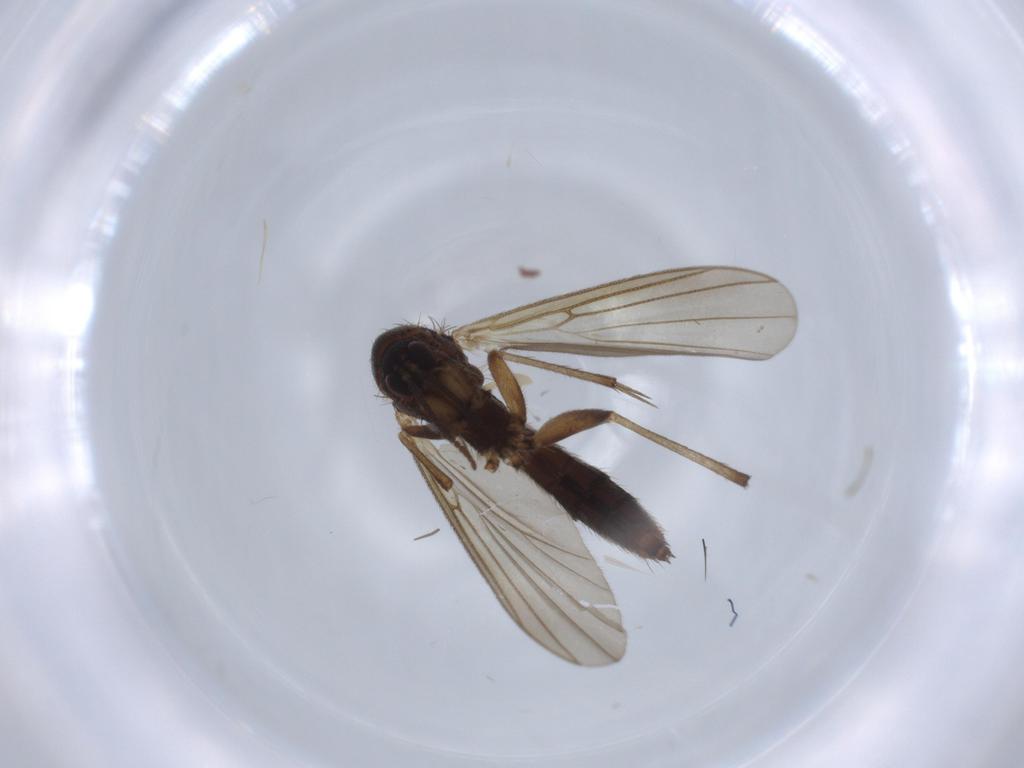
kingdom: Animalia
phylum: Arthropoda
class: Insecta
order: Diptera
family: Mycetophilidae
